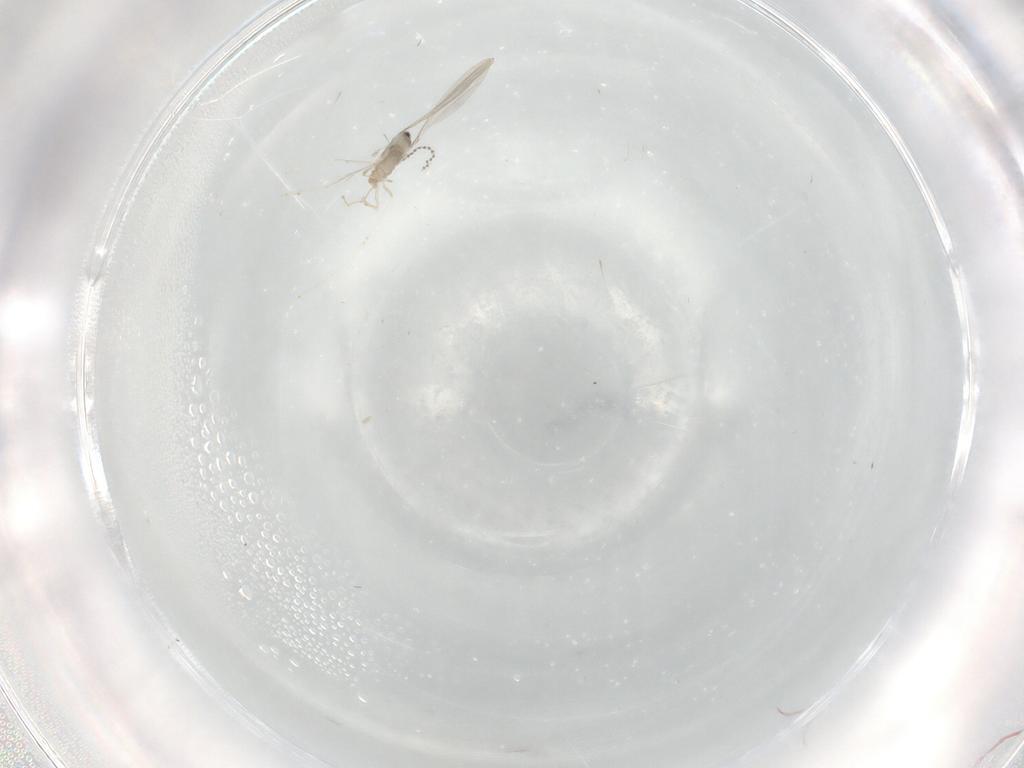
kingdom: Animalia
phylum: Arthropoda
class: Insecta
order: Diptera
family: Cecidomyiidae
